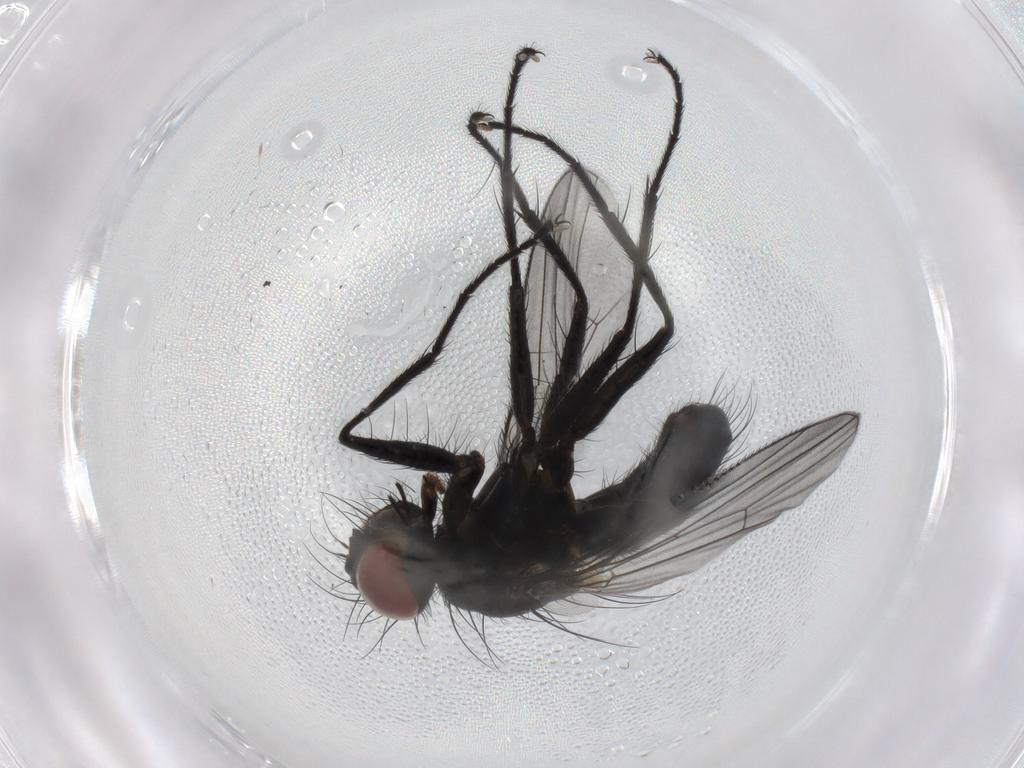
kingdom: Animalia
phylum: Arthropoda
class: Insecta
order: Diptera
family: Muscidae
